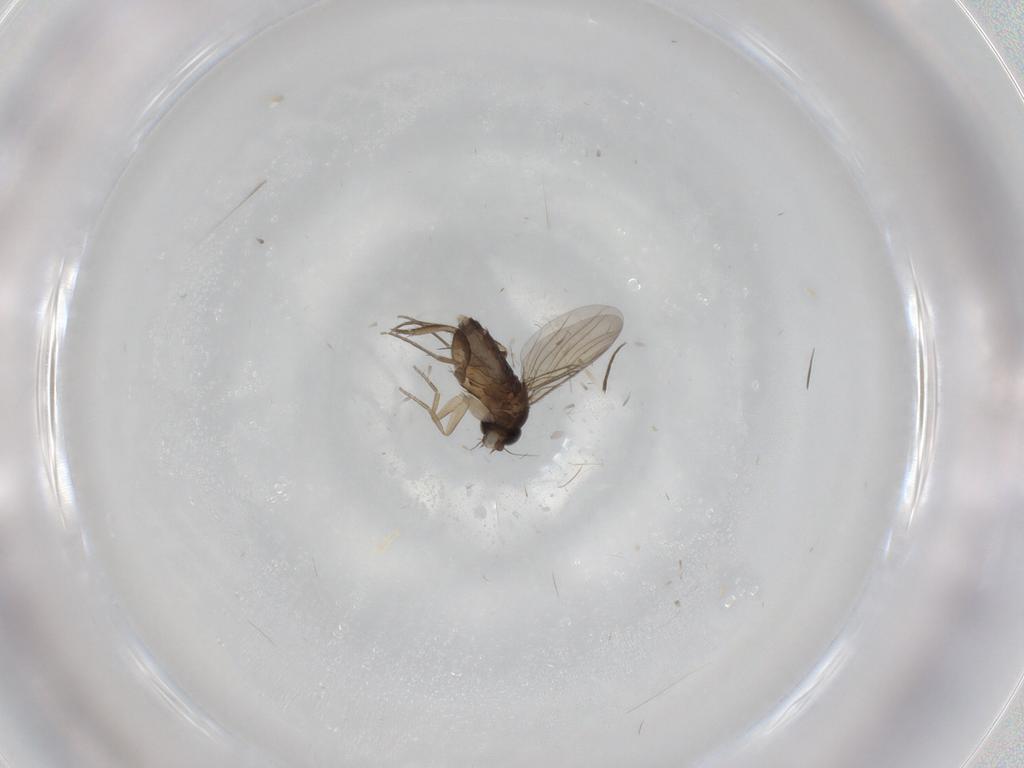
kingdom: Animalia
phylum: Arthropoda
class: Insecta
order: Diptera
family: Phoridae
